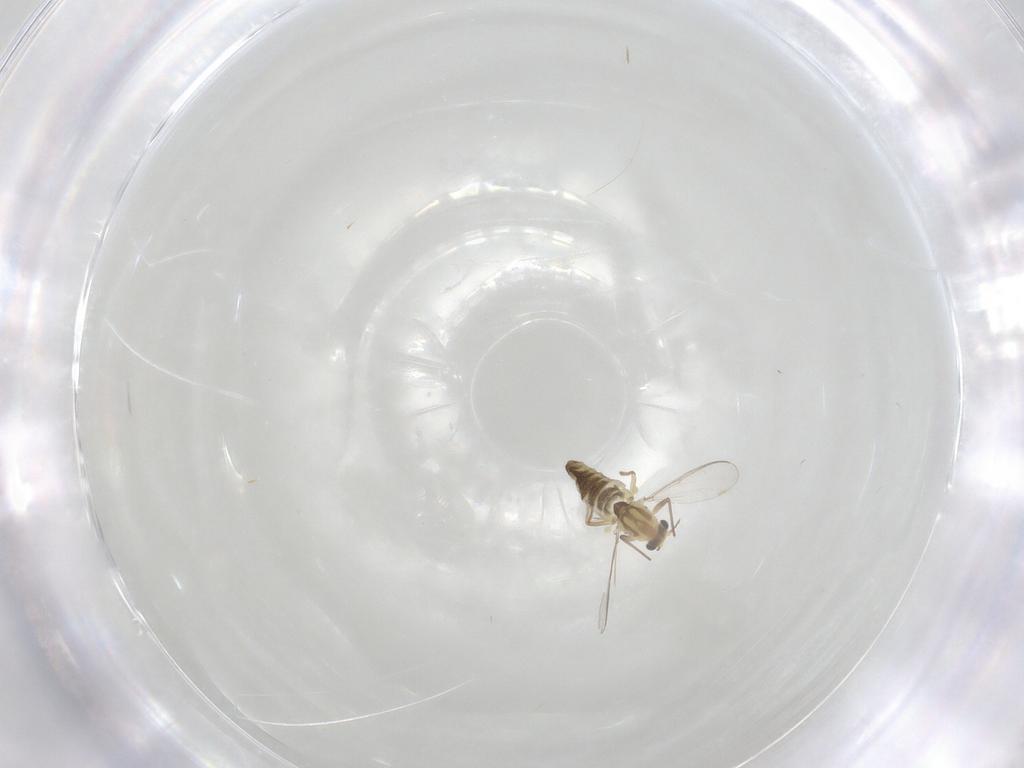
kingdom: Animalia
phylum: Arthropoda
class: Insecta
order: Diptera
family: Chironomidae
